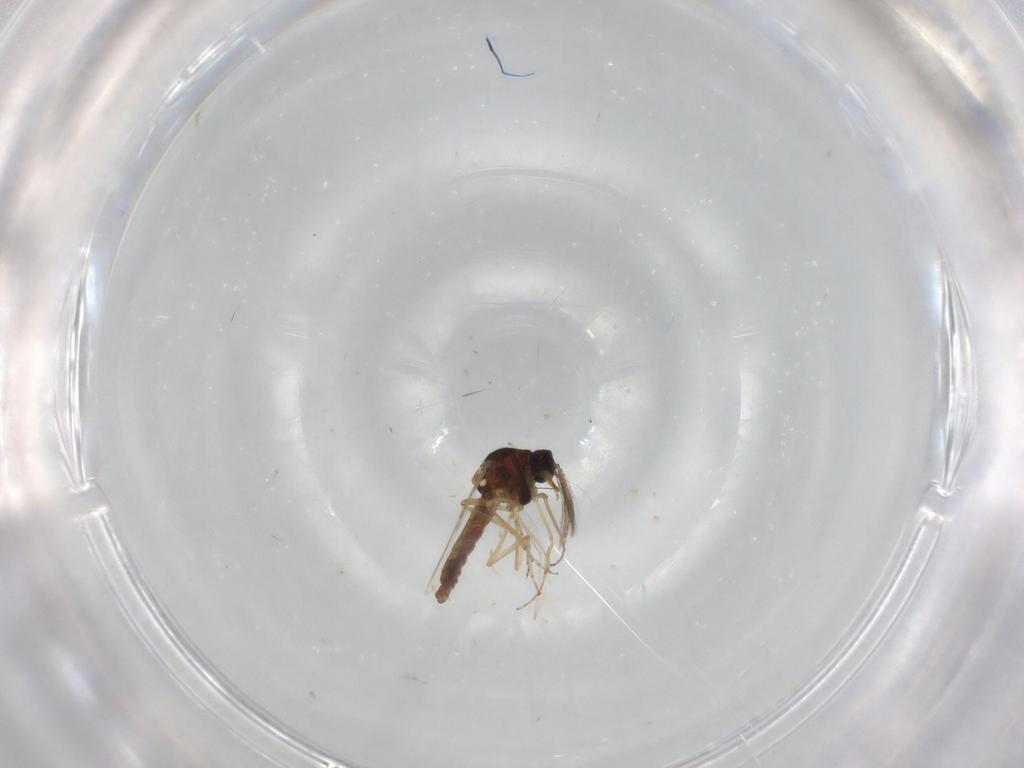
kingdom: Animalia
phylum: Arthropoda
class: Insecta
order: Diptera
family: Ceratopogonidae
